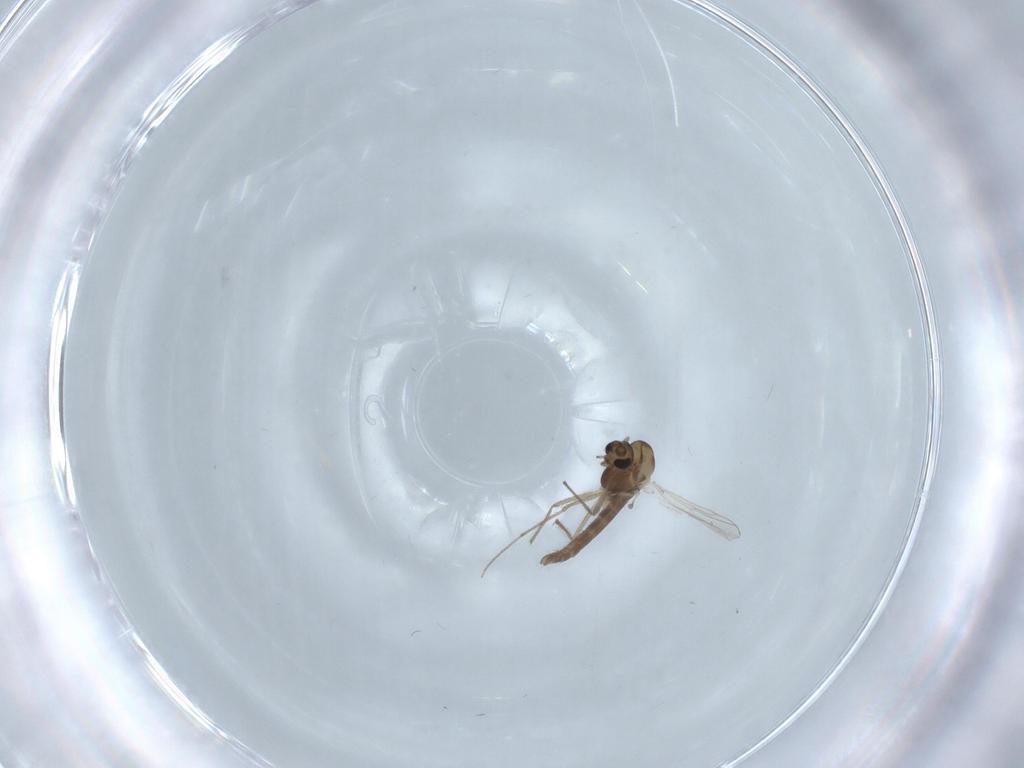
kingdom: Animalia
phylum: Arthropoda
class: Insecta
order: Diptera
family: Chironomidae
